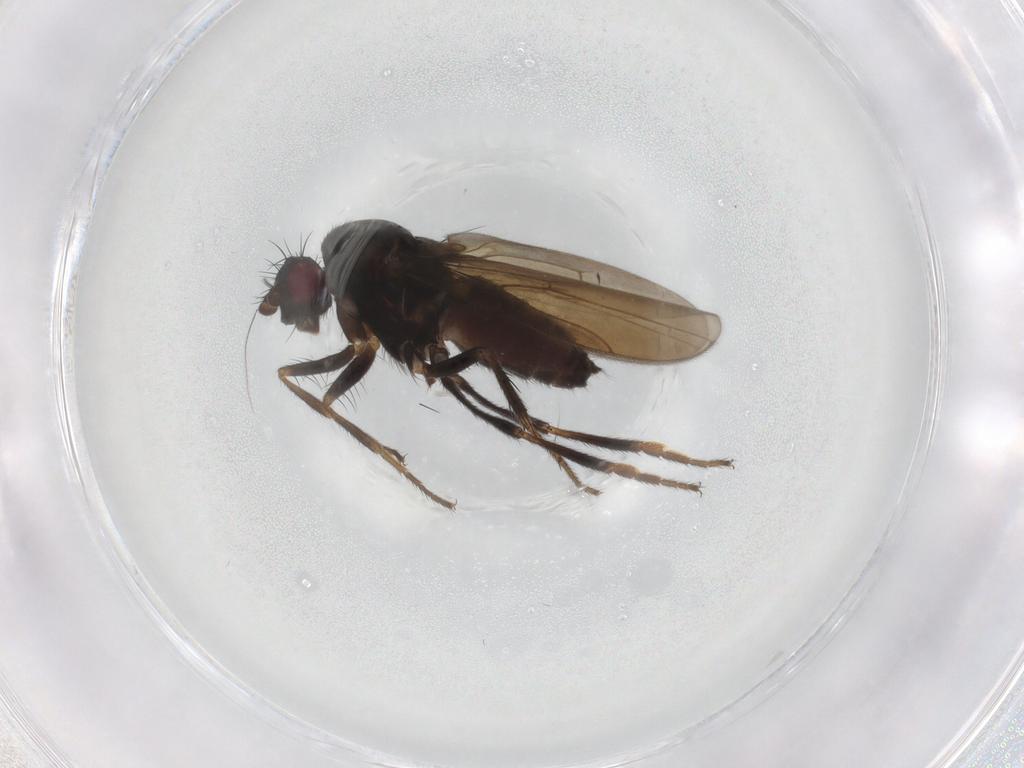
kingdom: Animalia
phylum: Arthropoda
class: Insecta
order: Diptera
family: Sphaeroceridae
